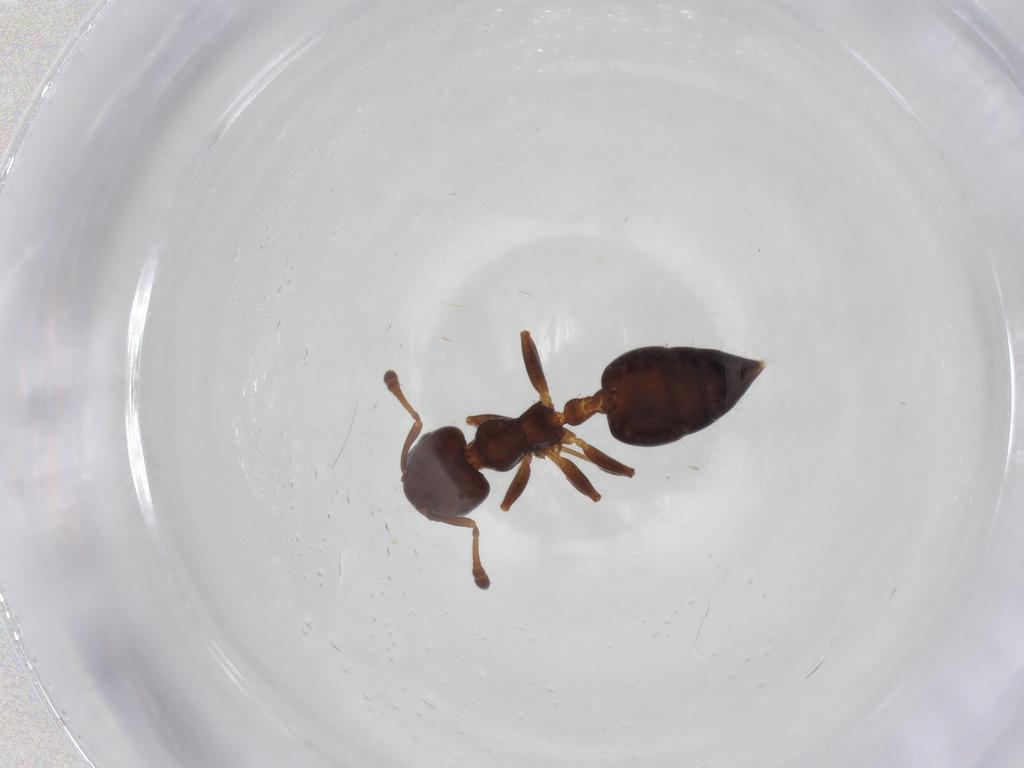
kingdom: Animalia
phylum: Arthropoda
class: Insecta
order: Hymenoptera
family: Formicidae
